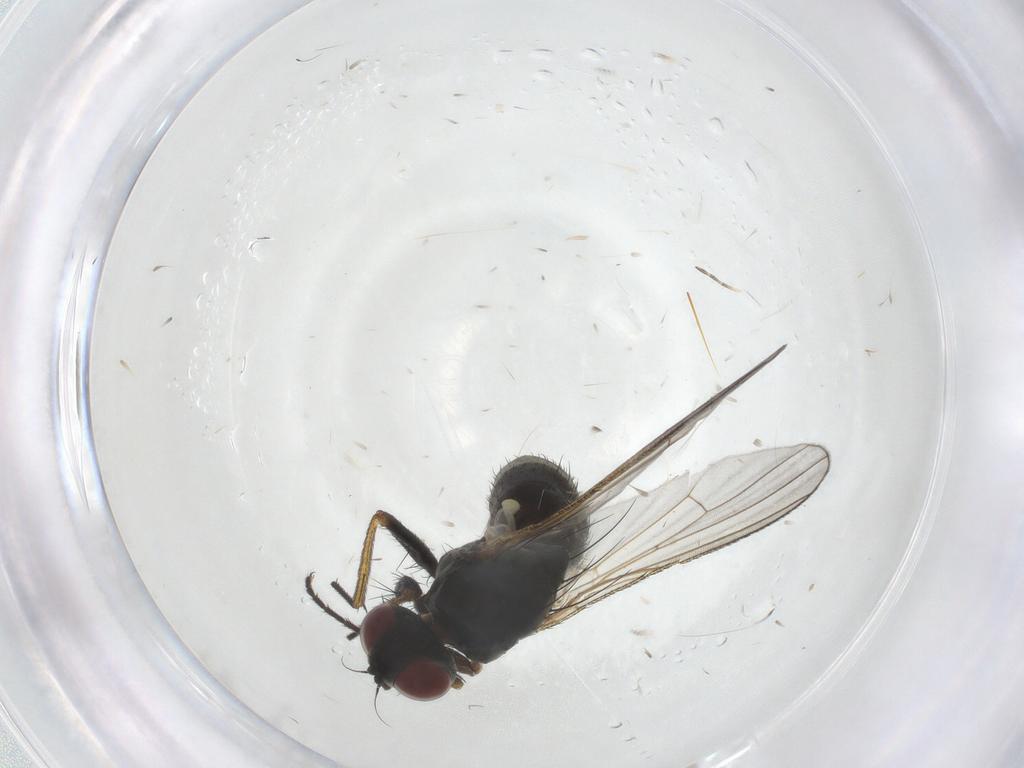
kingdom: Animalia
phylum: Arthropoda
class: Insecta
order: Diptera
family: Muscidae
